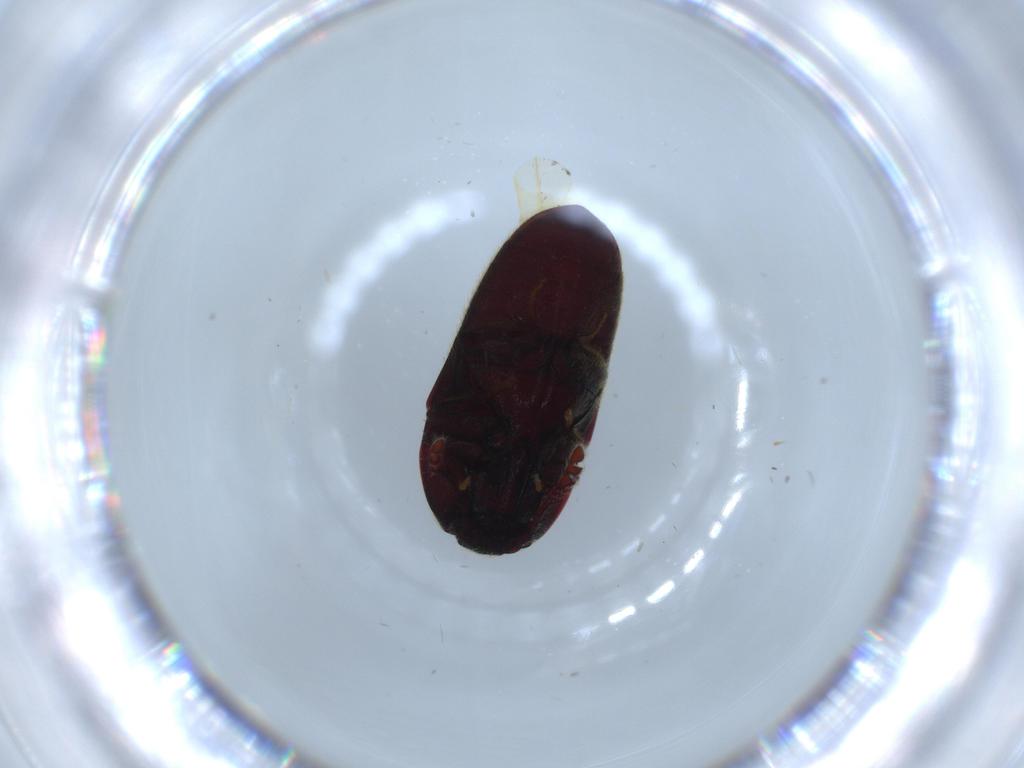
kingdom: Animalia
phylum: Arthropoda
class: Insecta
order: Coleoptera
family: Throscidae
